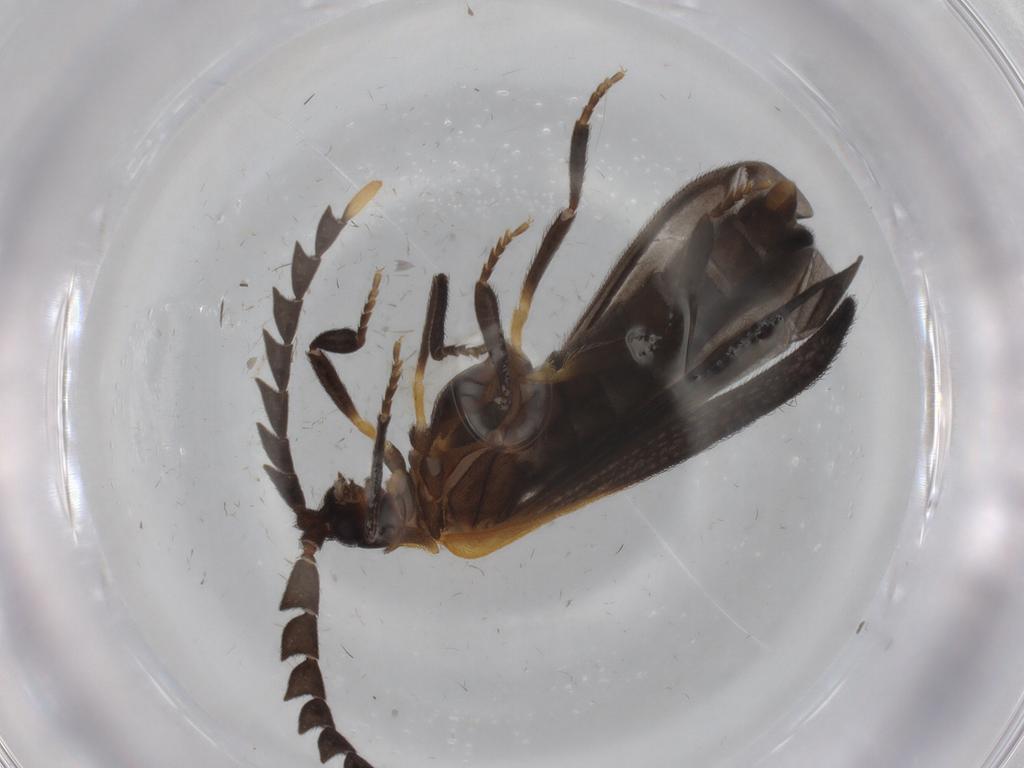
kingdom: Animalia
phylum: Arthropoda
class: Insecta
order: Coleoptera
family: Lycidae
